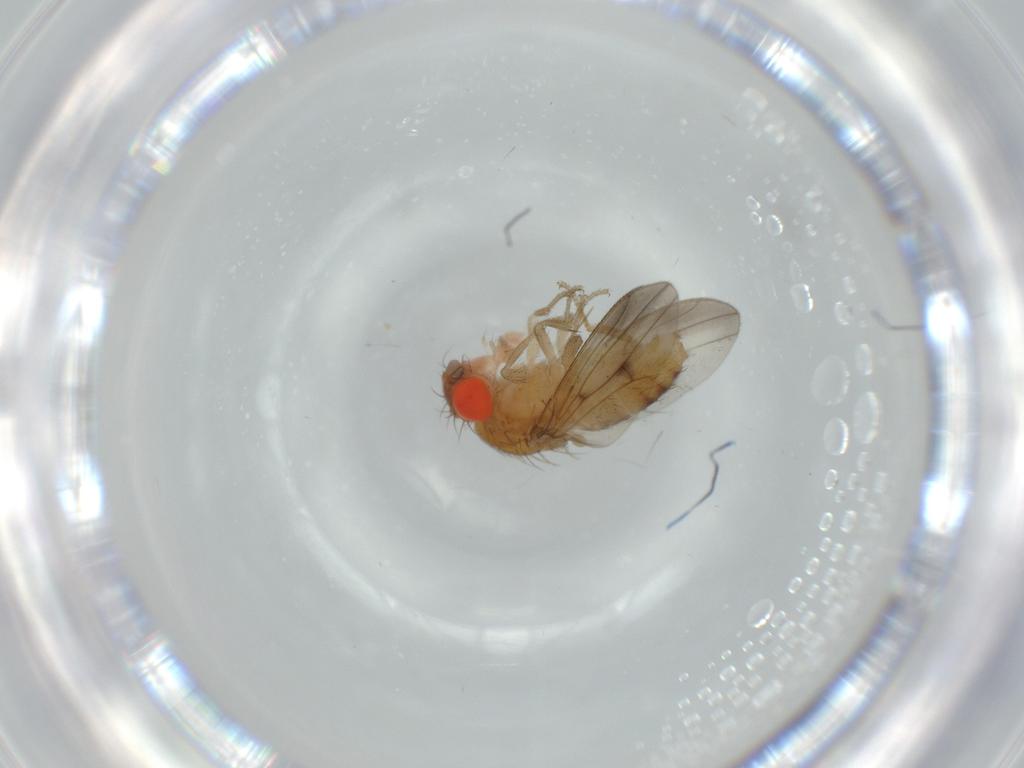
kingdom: Animalia
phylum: Arthropoda
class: Insecta
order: Diptera
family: Drosophilidae
